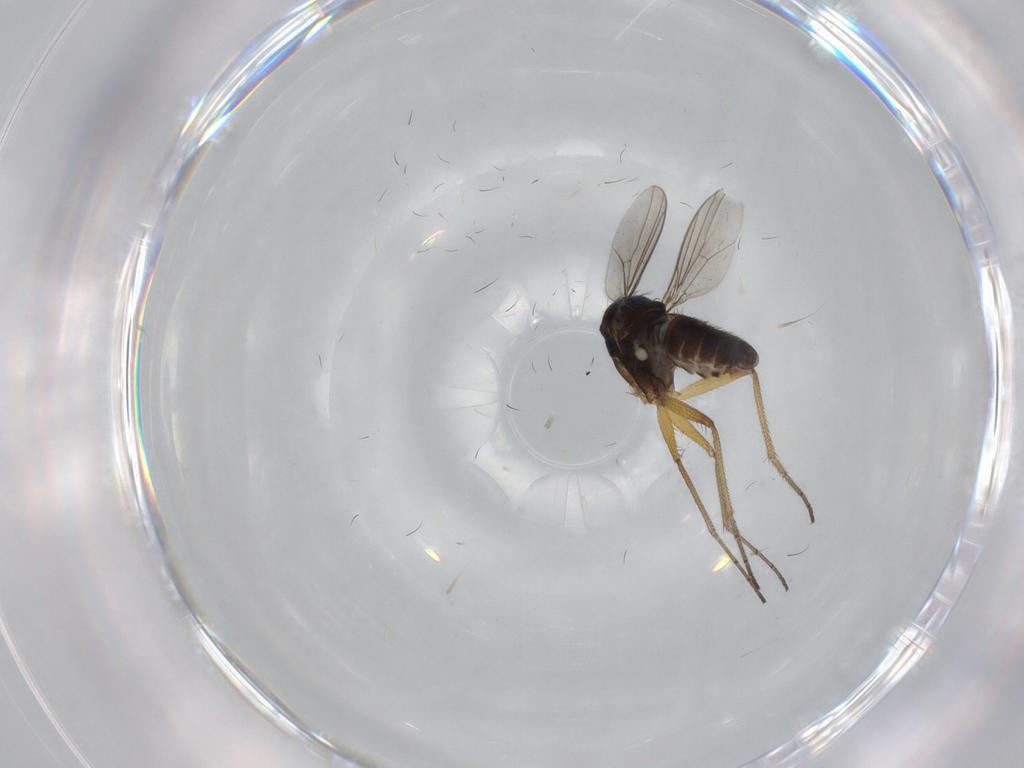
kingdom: Animalia
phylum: Arthropoda
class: Insecta
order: Diptera
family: Dolichopodidae
